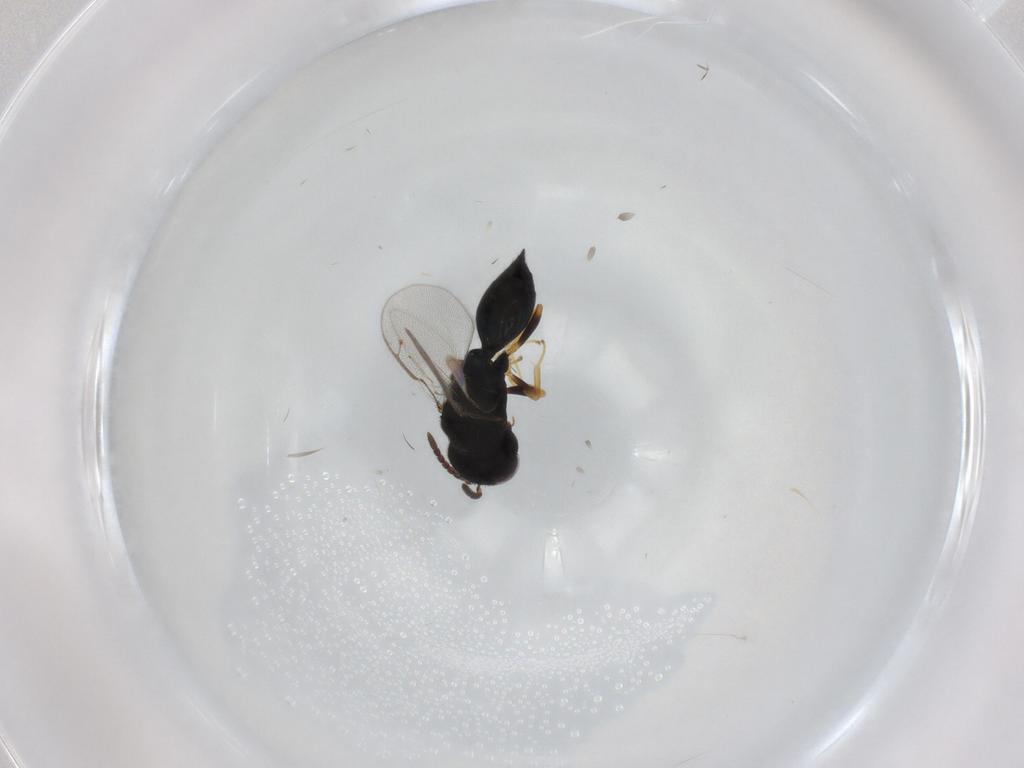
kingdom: Animalia
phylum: Arthropoda
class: Insecta
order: Hymenoptera
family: Pteromalidae
